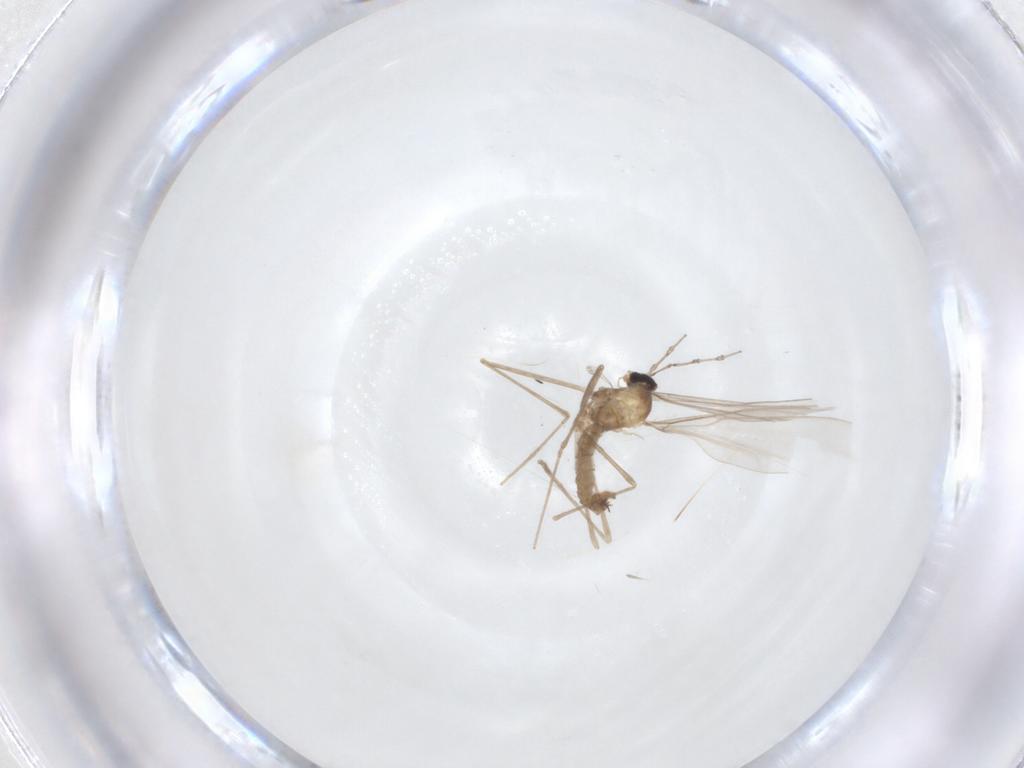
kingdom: Animalia
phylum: Arthropoda
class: Insecta
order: Diptera
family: Cecidomyiidae
